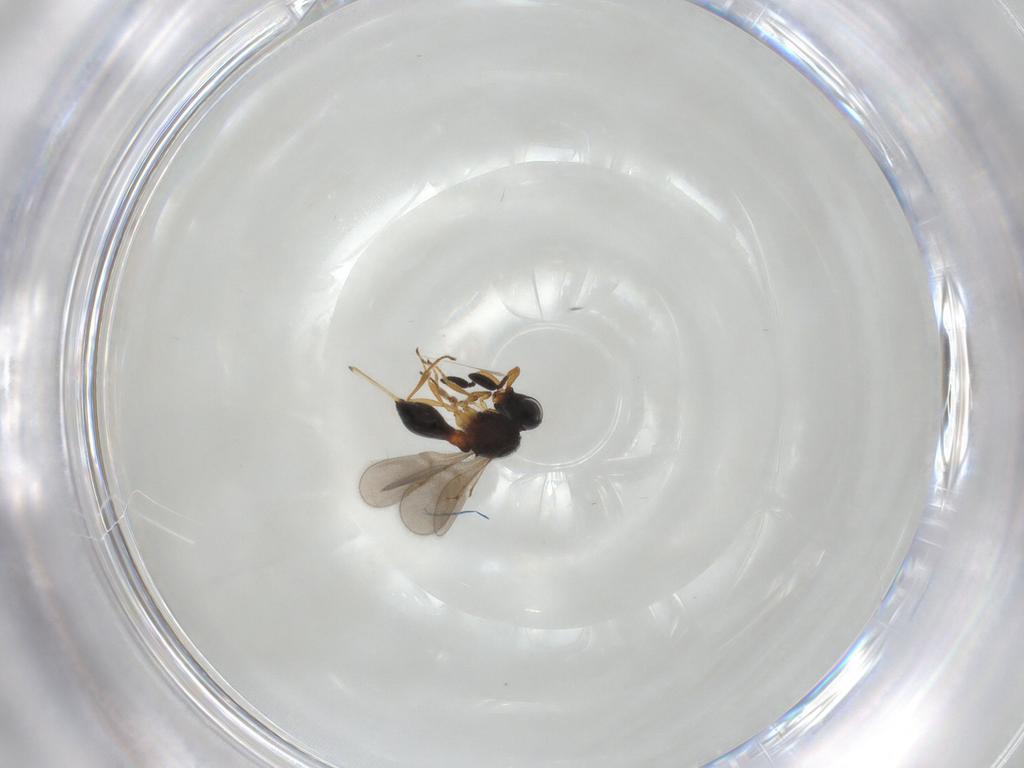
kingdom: Animalia
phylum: Arthropoda
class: Insecta
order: Hymenoptera
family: Scelionidae
